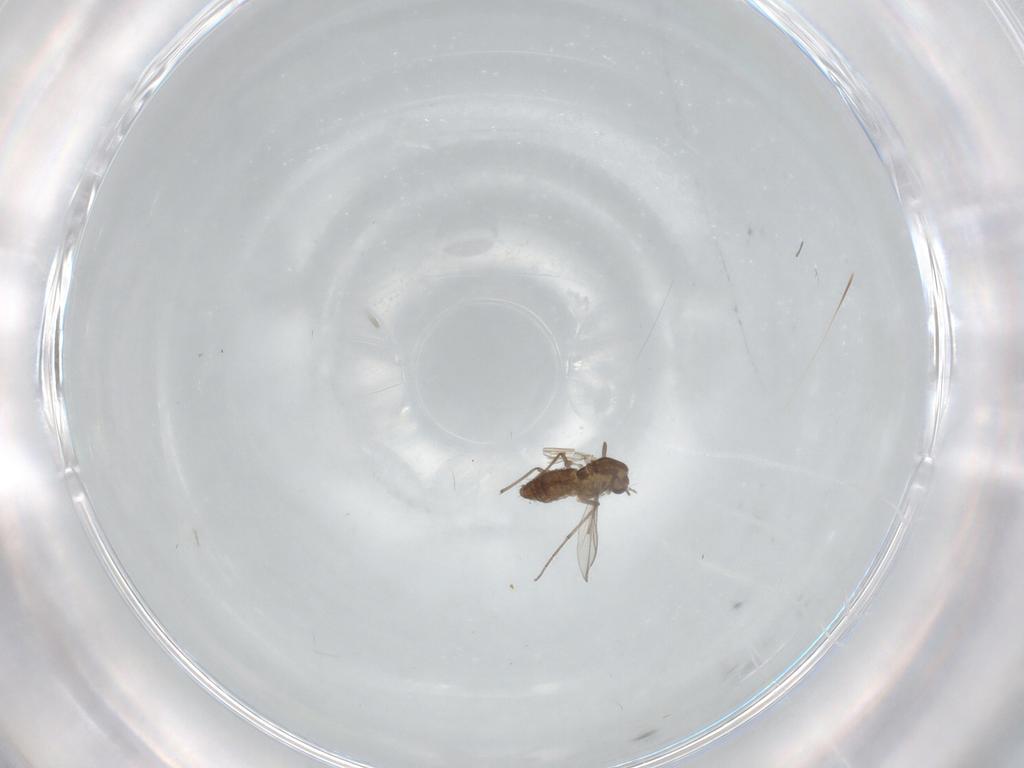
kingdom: Animalia
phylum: Arthropoda
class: Insecta
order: Diptera
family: Chironomidae
